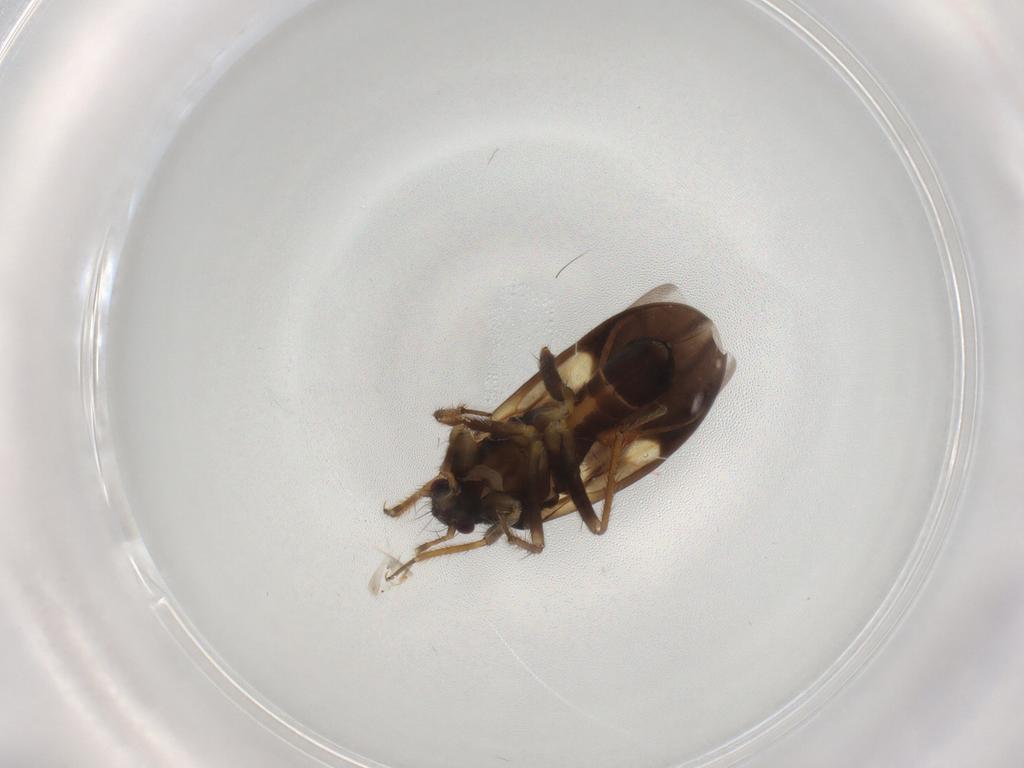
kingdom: Animalia
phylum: Arthropoda
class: Insecta
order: Hemiptera
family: Ceratocombidae
